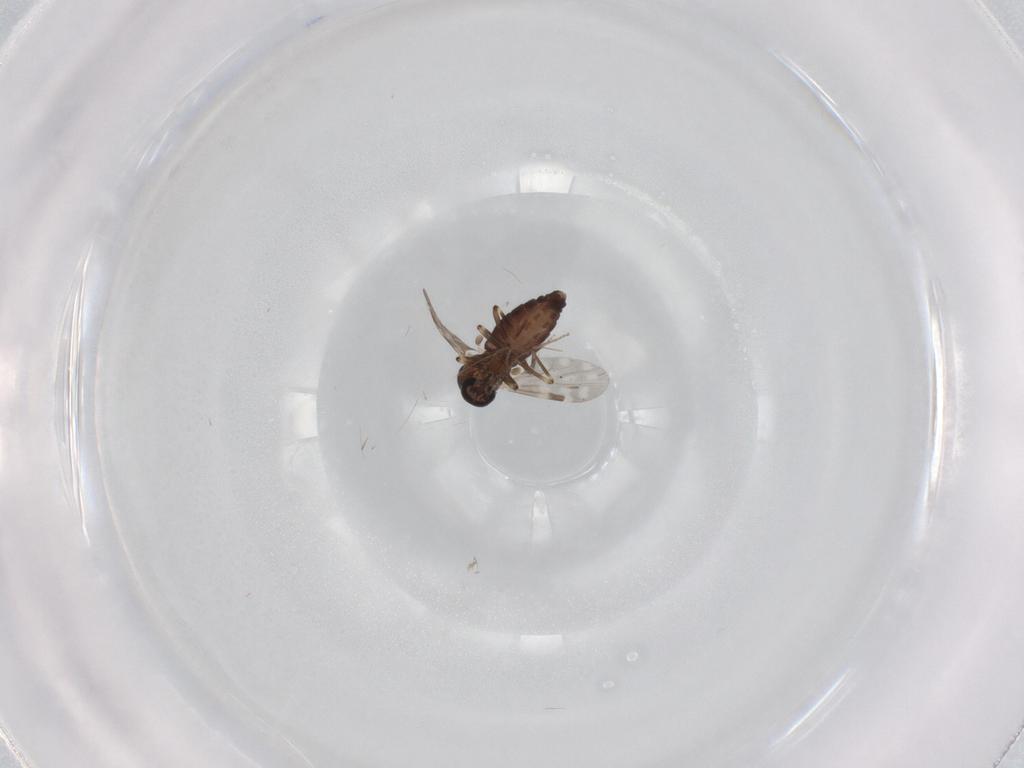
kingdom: Animalia
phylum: Arthropoda
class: Insecta
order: Diptera
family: Ceratopogonidae
